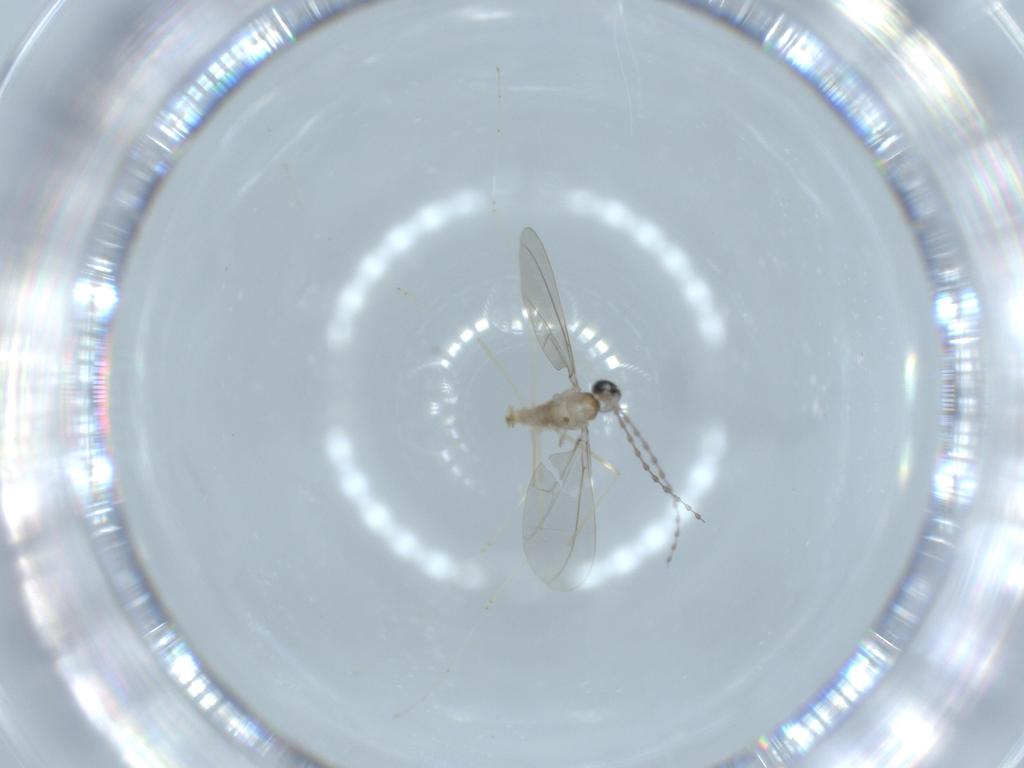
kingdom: Animalia
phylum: Arthropoda
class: Insecta
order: Diptera
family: Cecidomyiidae
